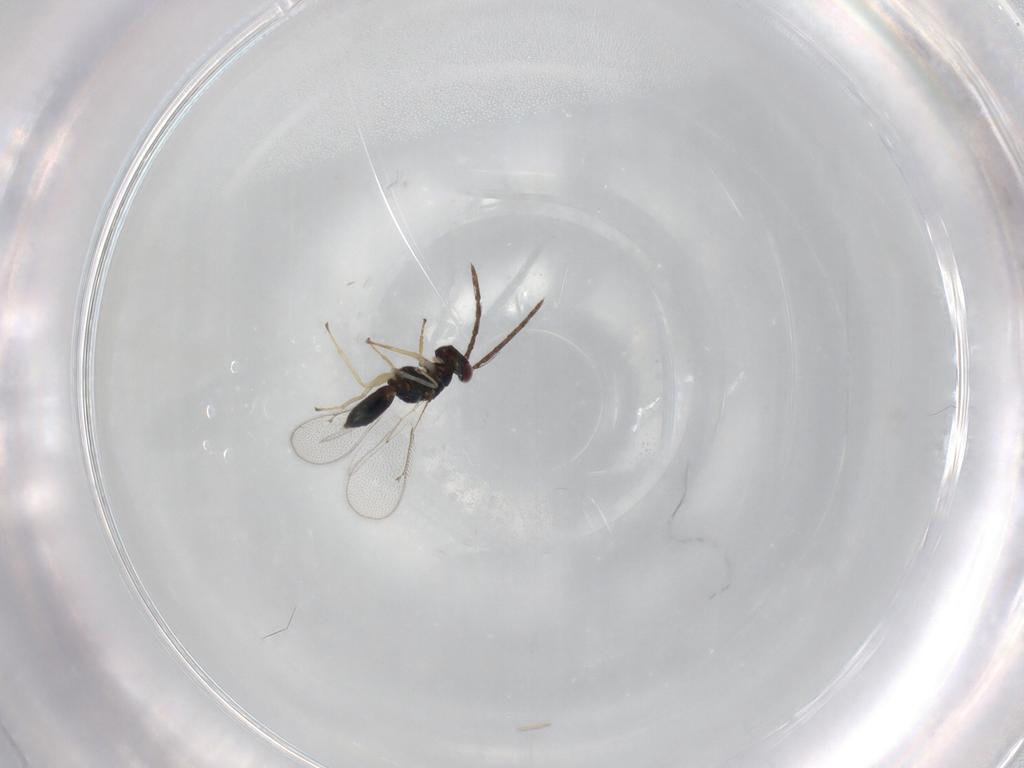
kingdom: Animalia
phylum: Arthropoda
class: Insecta
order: Hymenoptera
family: Eulophidae
